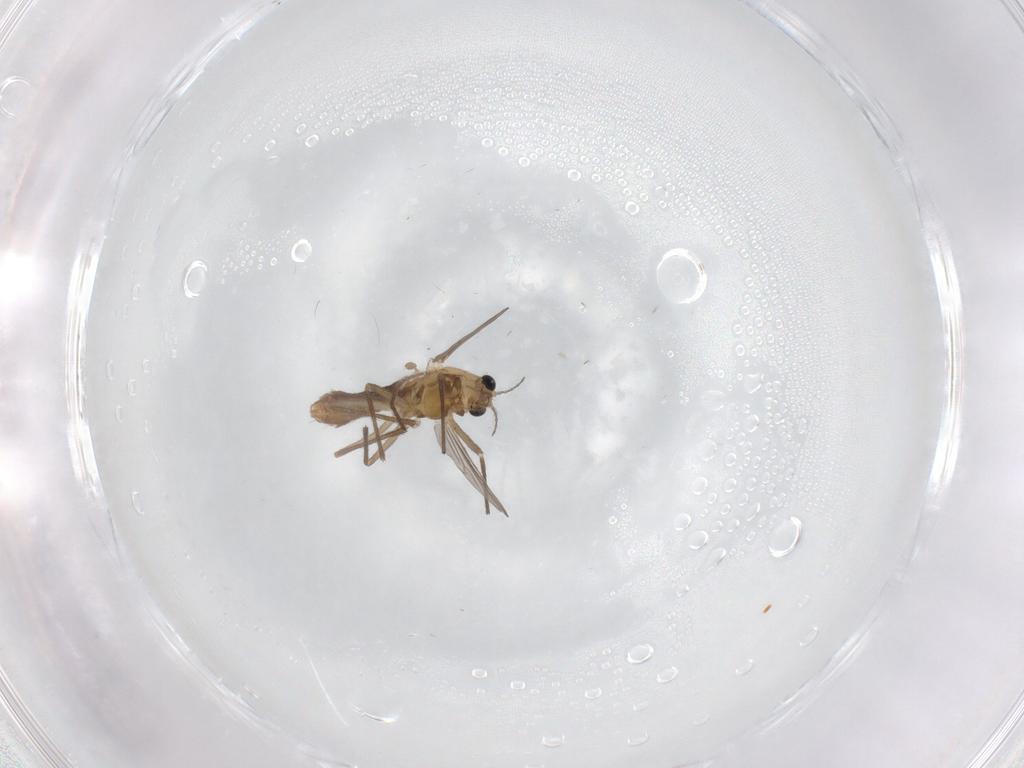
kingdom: Animalia
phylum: Arthropoda
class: Insecta
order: Diptera
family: Chironomidae
